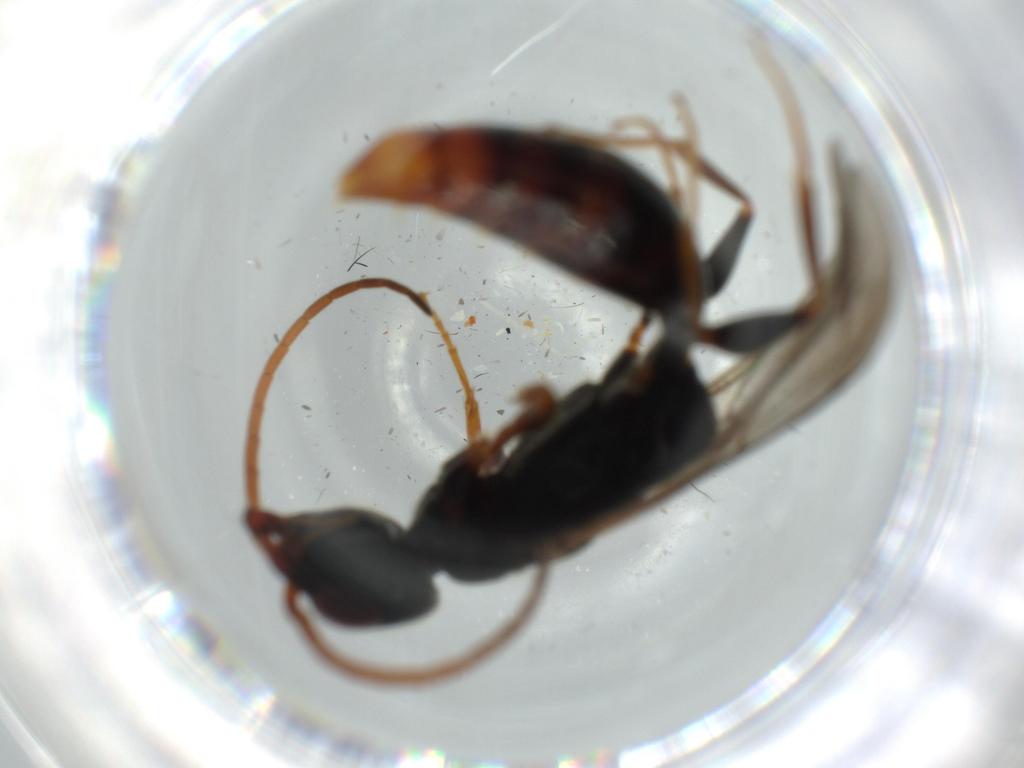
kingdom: Animalia
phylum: Arthropoda
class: Insecta
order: Hymenoptera
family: Bethylidae
